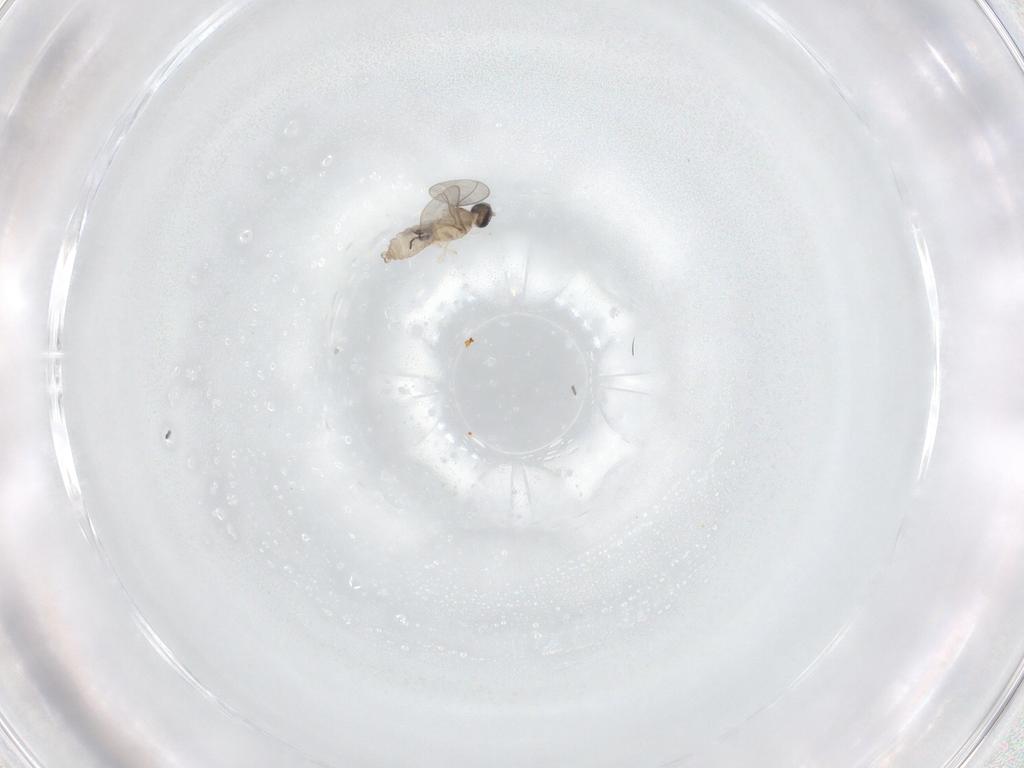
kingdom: Animalia
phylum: Arthropoda
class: Insecta
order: Diptera
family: Cecidomyiidae
